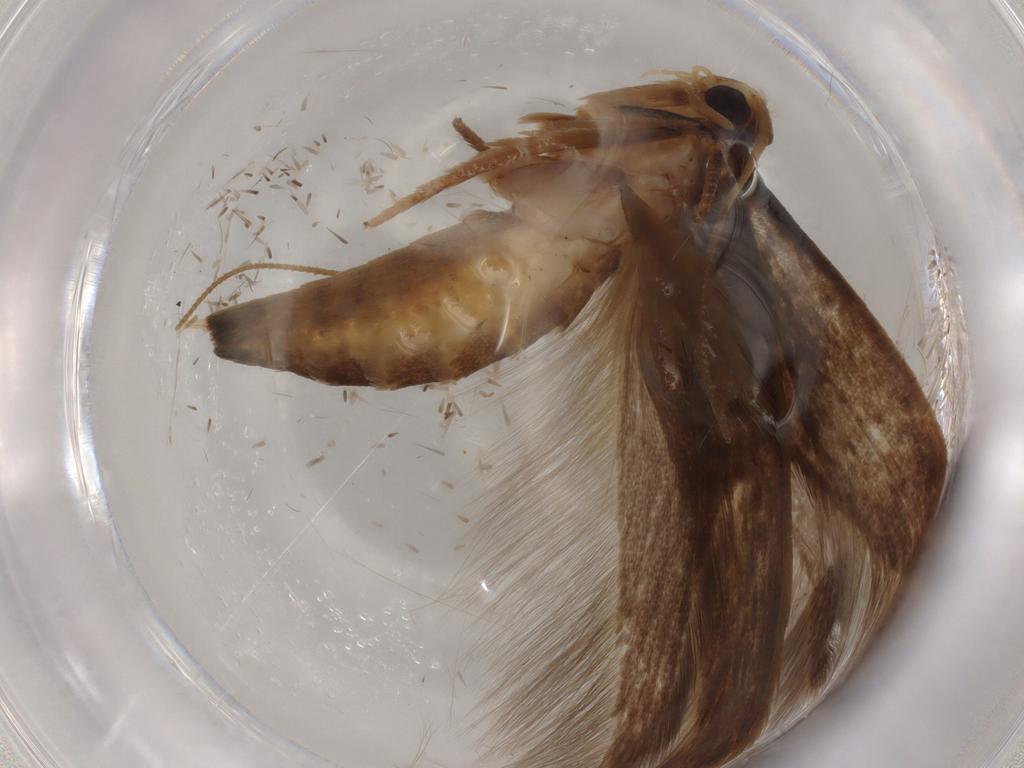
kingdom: Animalia
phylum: Arthropoda
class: Insecta
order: Lepidoptera
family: Tineidae
